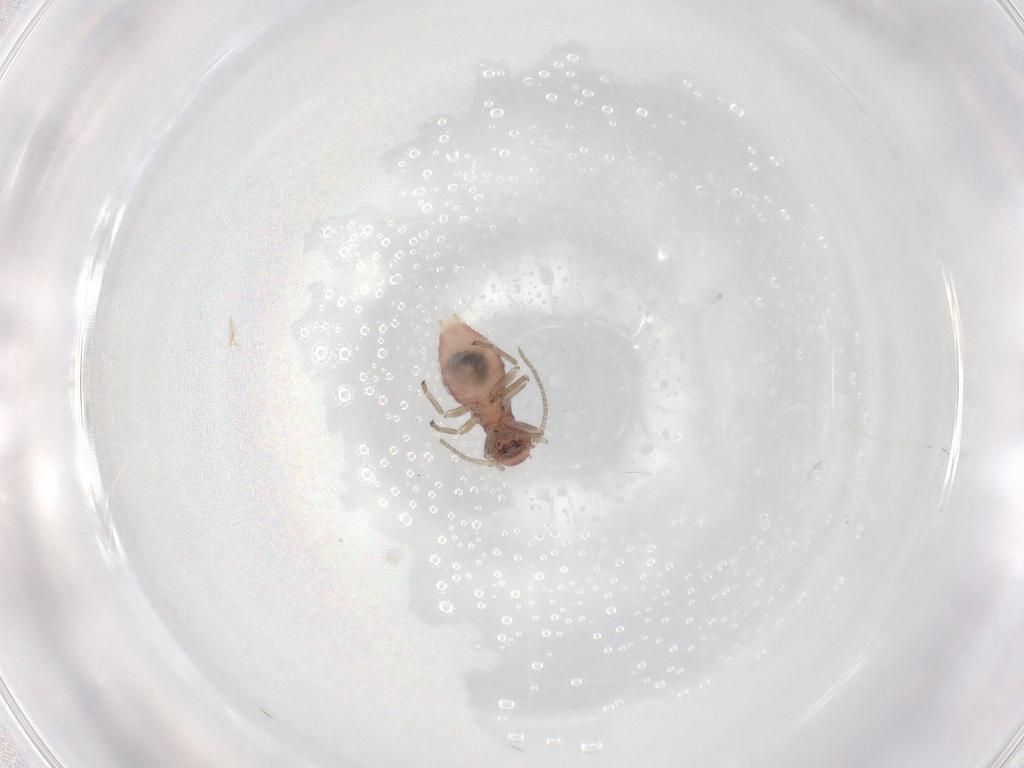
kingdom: Animalia
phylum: Arthropoda
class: Insecta
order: Psocodea
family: Caeciliusidae
